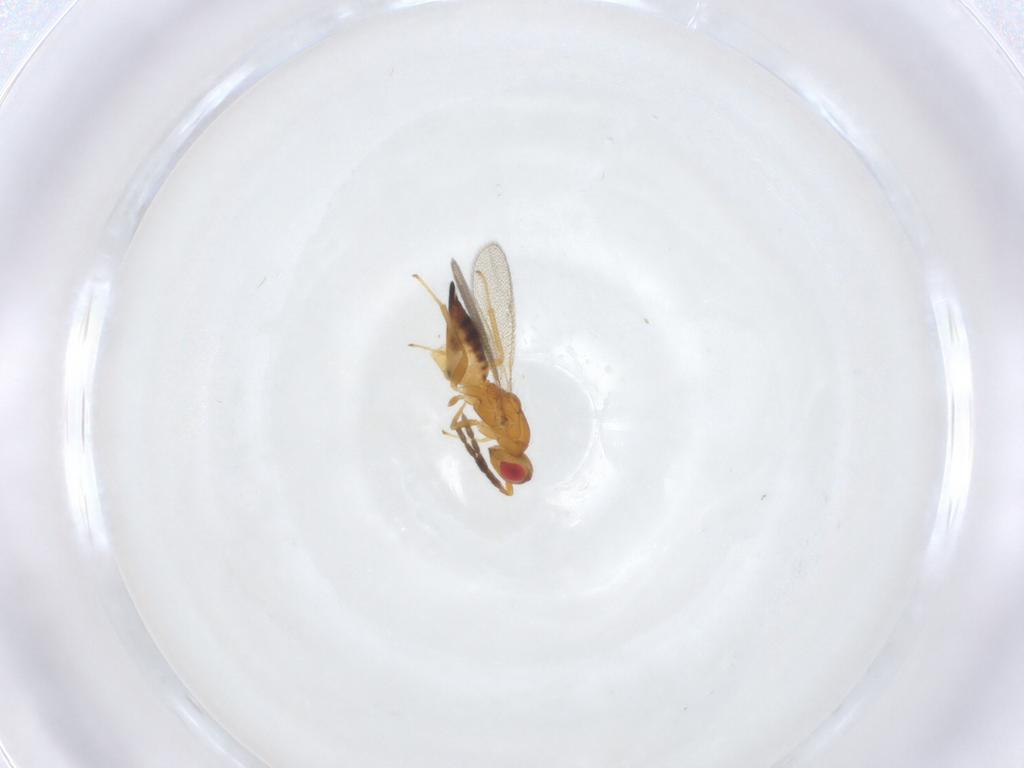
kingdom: Animalia
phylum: Arthropoda
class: Insecta
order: Hymenoptera
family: Eulophidae
